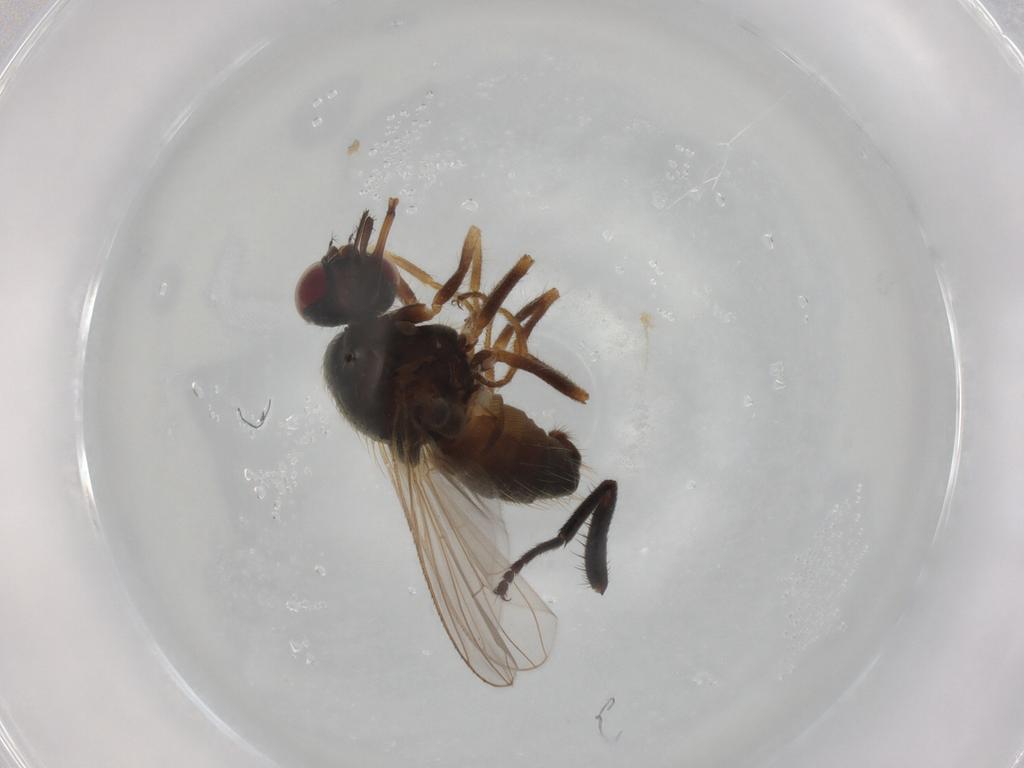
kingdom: Animalia
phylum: Arthropoda
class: Insecta
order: Diptera
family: Muscidae
